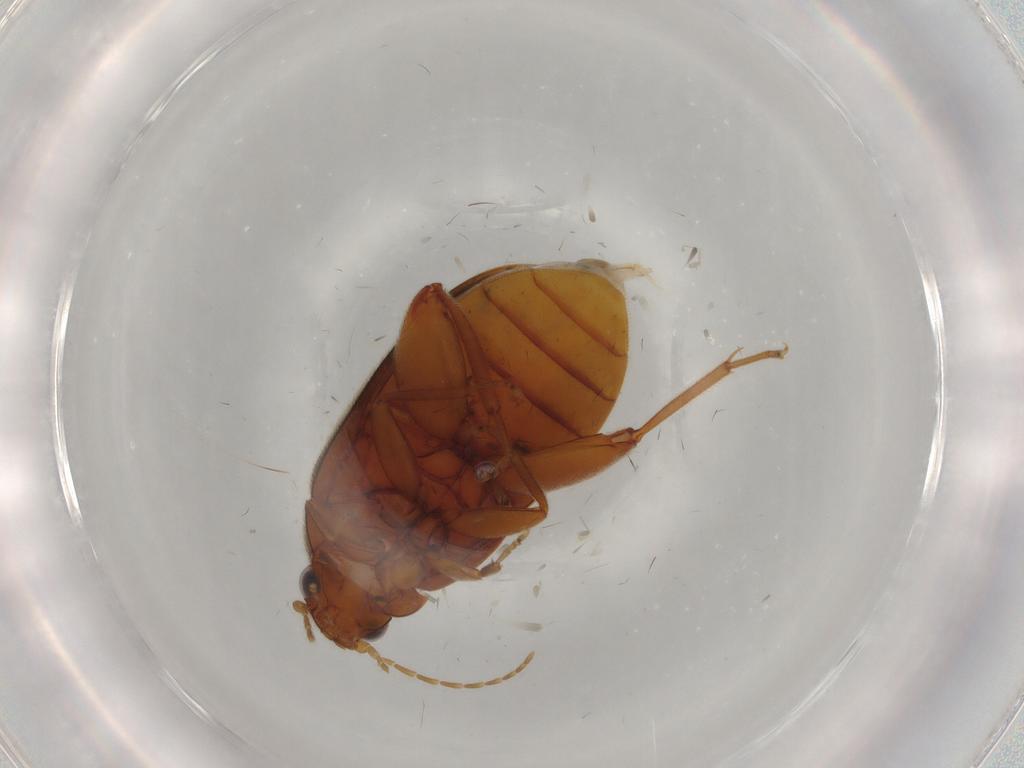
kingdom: Animalia
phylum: Arthropoda
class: Insecta
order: Coleoptera
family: Scirtidae
